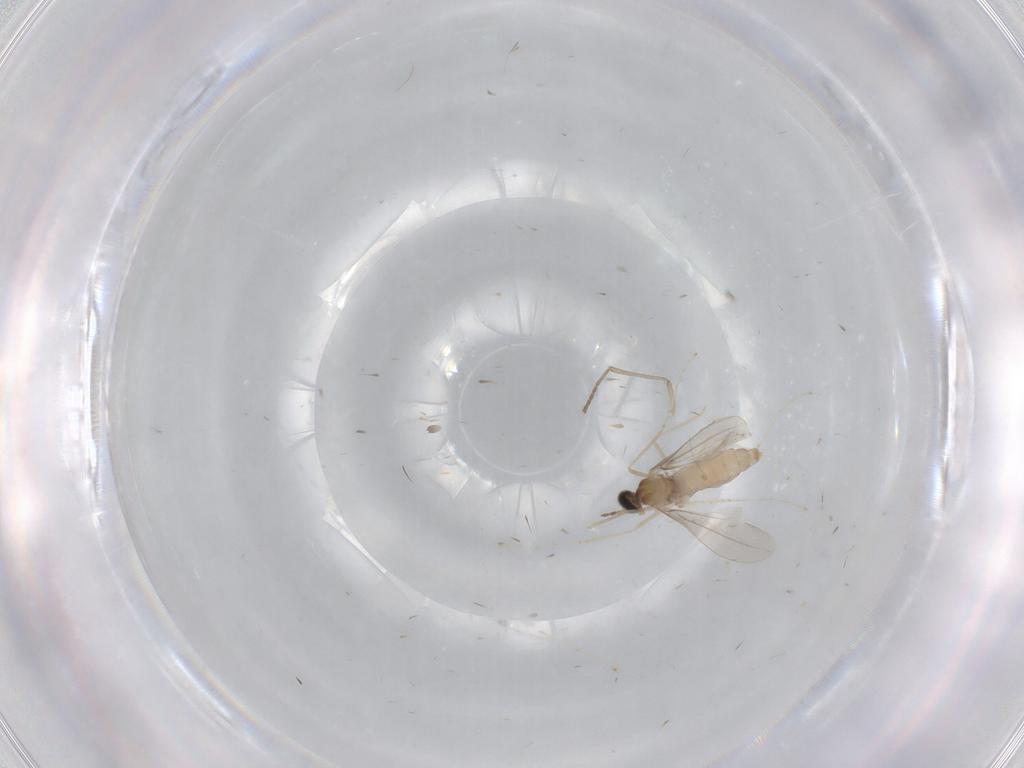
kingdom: Animalia
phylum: Arthropoda
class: Insecta
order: Diptera
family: Cecidomyiidae
